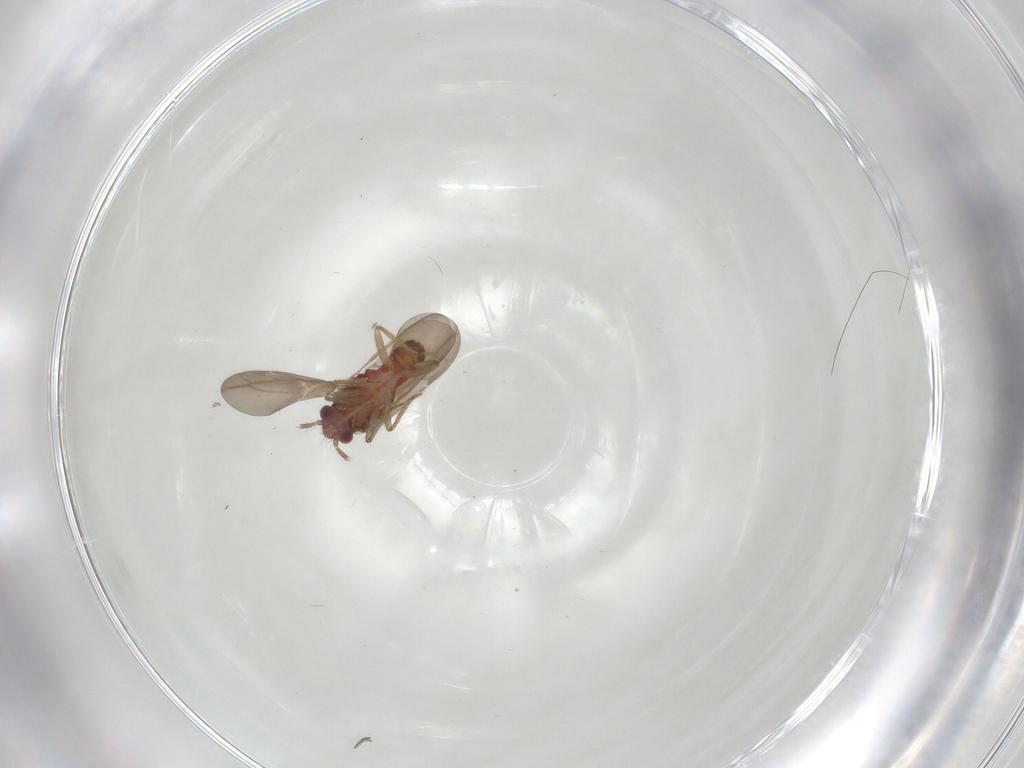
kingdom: Animalia
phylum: Arthropoda
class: Insecta
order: Hemiptera
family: Ceratocombidae
